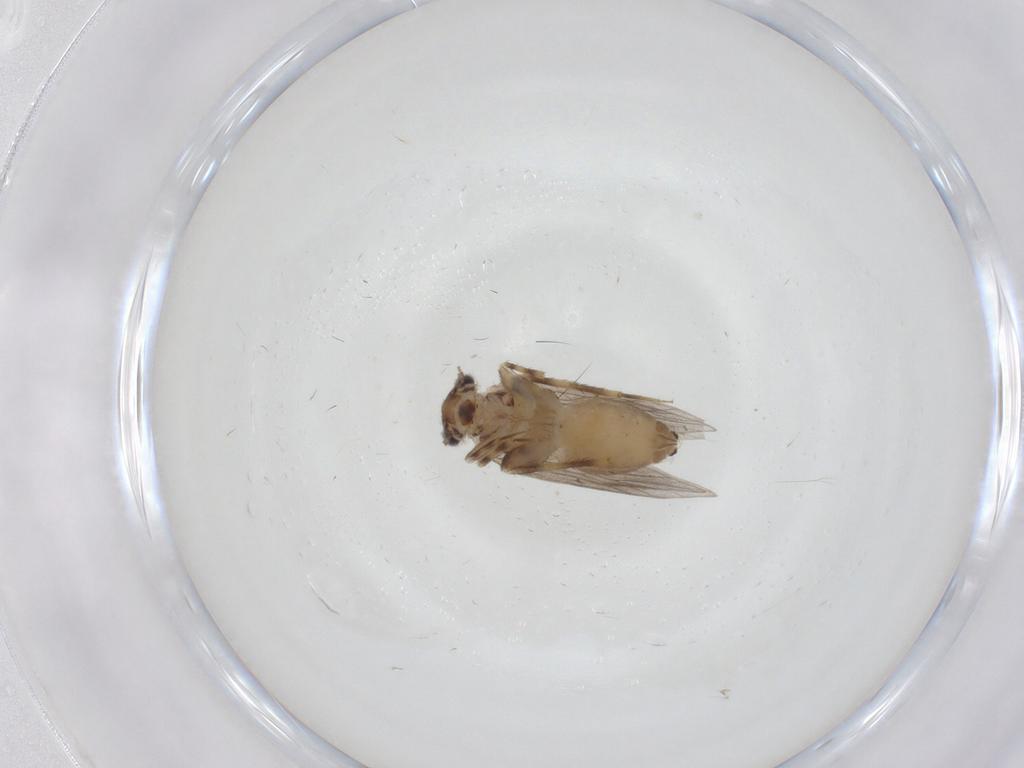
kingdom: Animalia
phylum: Arthropoda
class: Insecta
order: Psocodea
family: Lepidopsocidae
